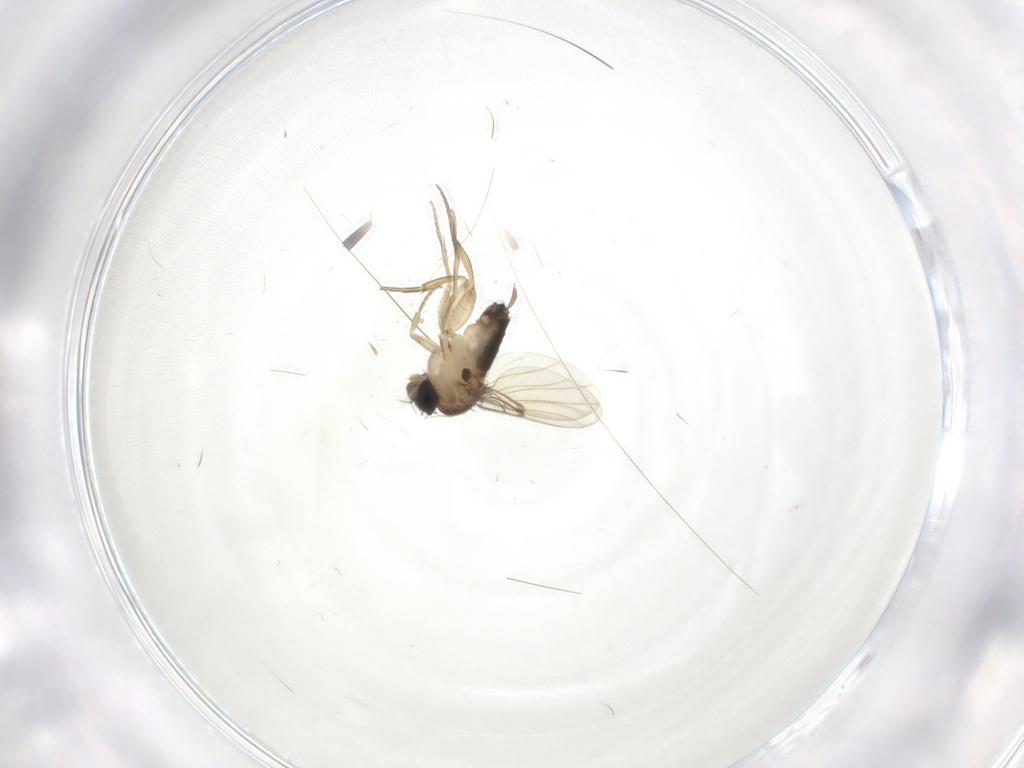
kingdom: Animalia
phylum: Arthropoda
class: Insecta
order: Diptera
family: Phoridae
